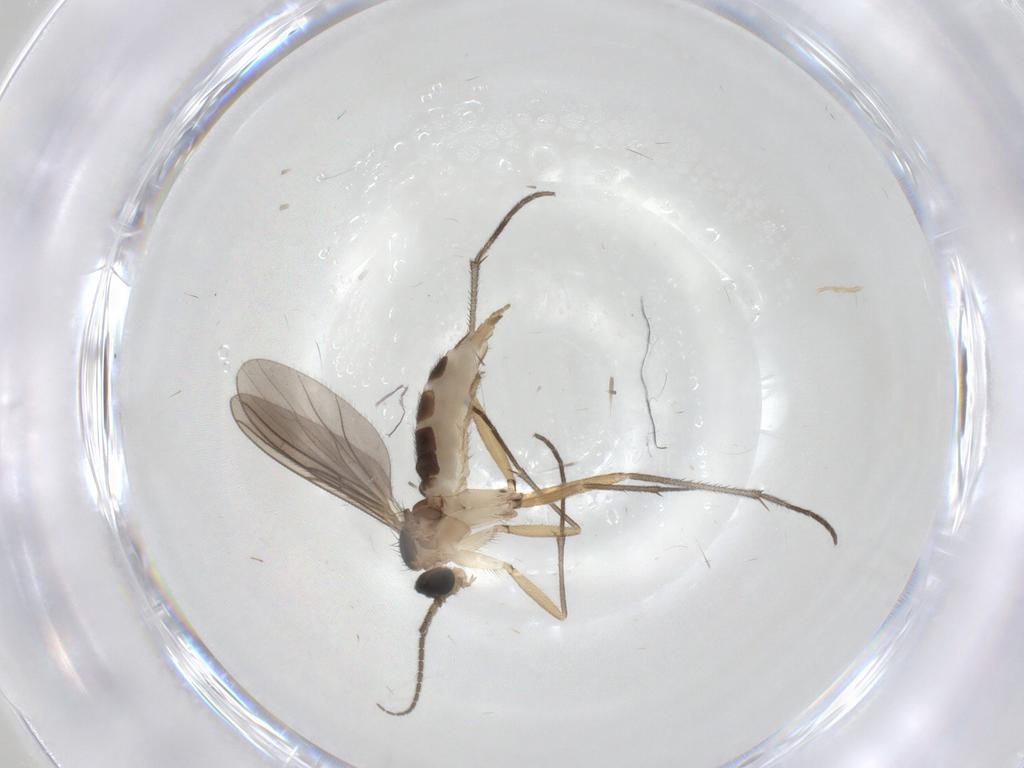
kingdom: Animalia
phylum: Arthropoda
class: Insecta
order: Diptera
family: Sciaridae
